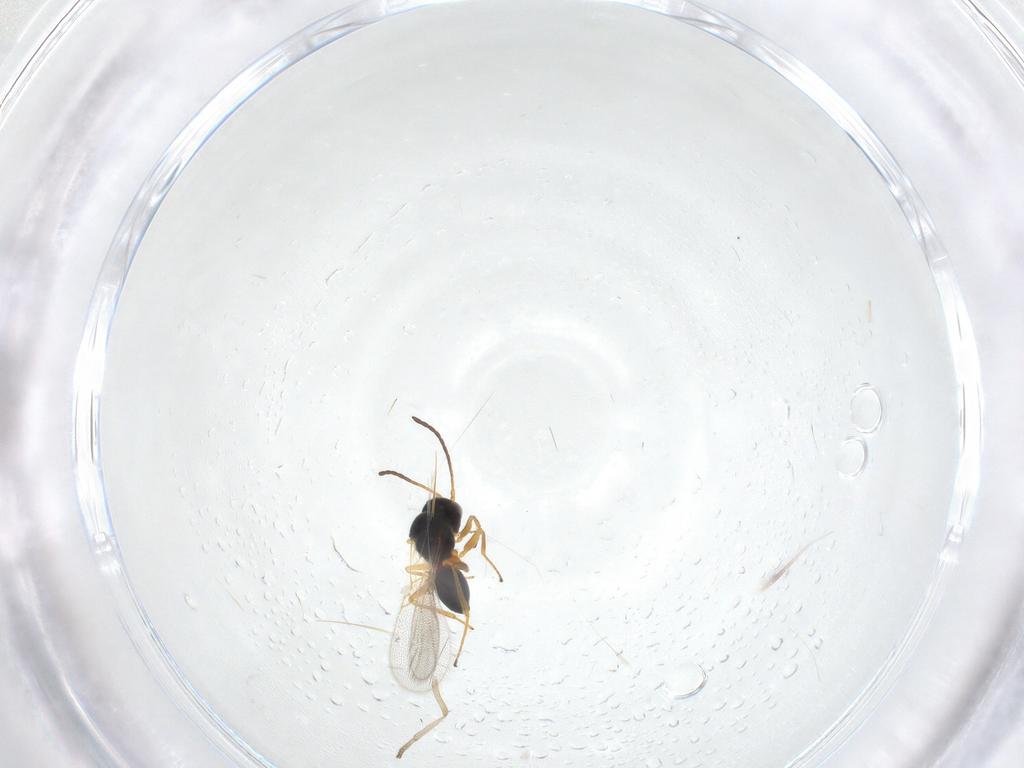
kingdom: Animalia
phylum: Arthropoda
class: Insecta
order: Hymenoptera
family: Figitidae
